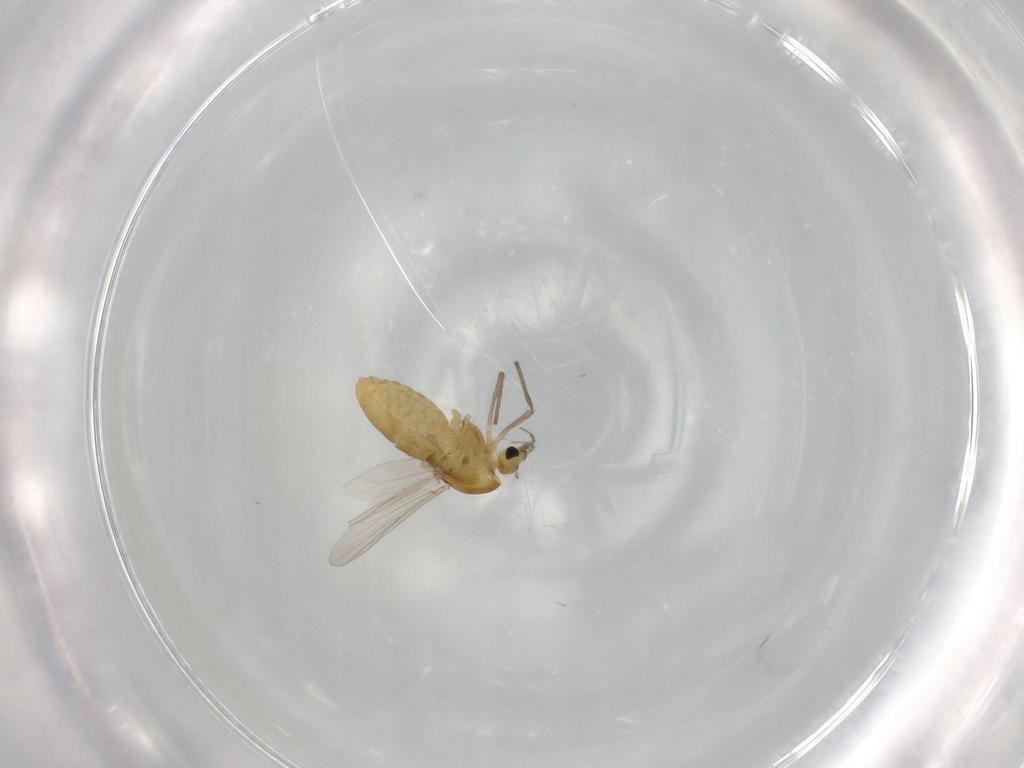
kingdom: Animalia
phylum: Arthropoda
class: Insecta
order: Diptera
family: Chironomidae
